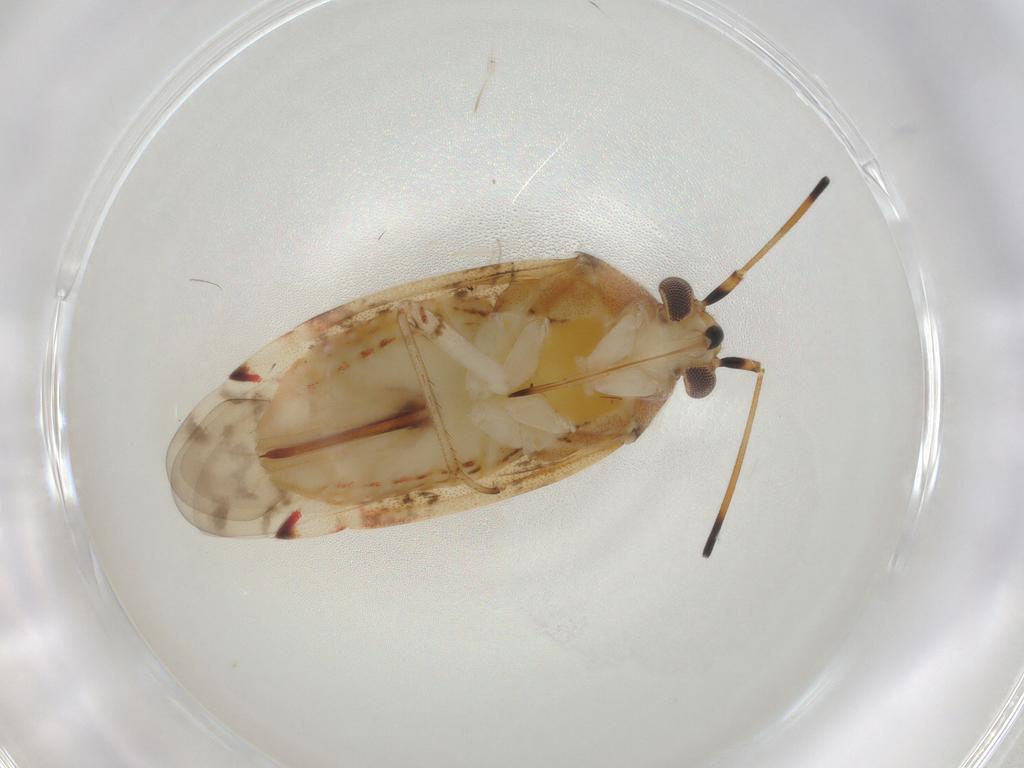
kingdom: Animalia
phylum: Arthropoda
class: Insecta
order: Hemiptera
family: Miridae
